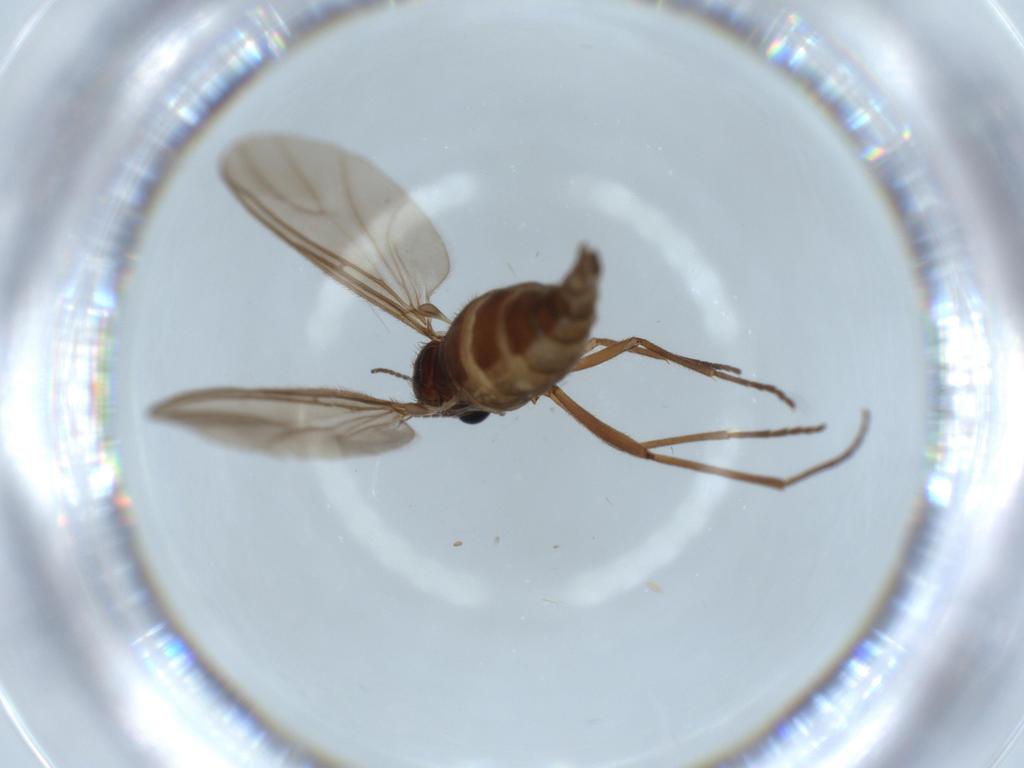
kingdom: Animalia
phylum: Arthropoda
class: Insecta
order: Diptera
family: Sciaridae
